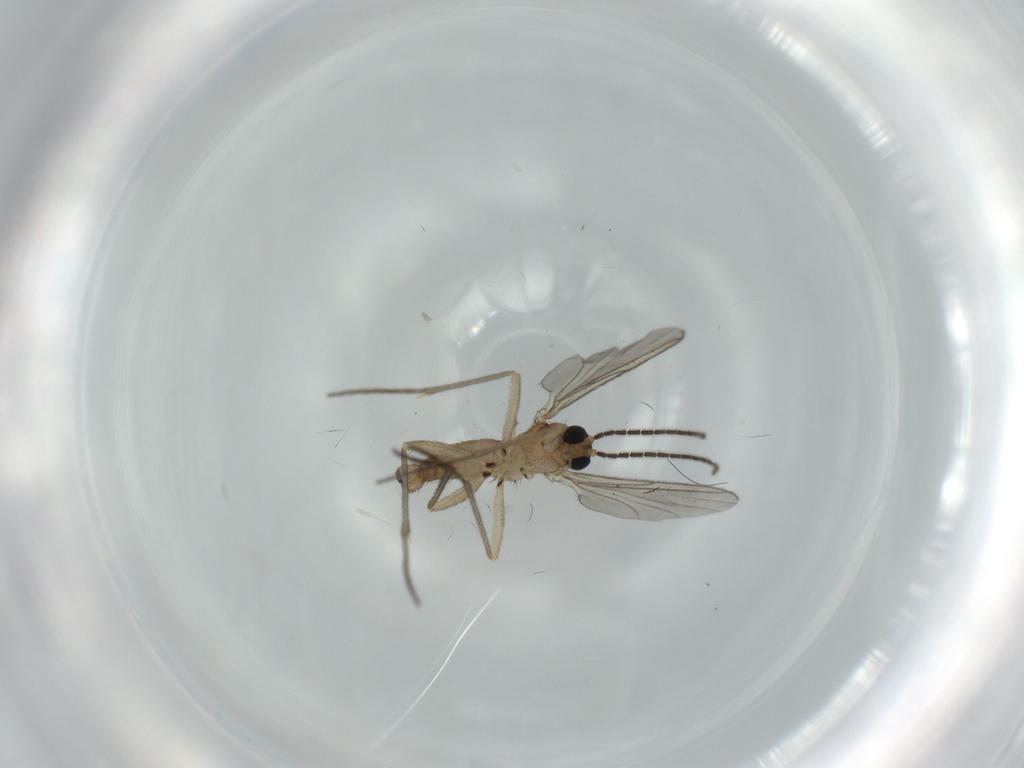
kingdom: Animalia
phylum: Arthropoda
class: Insecta
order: Diptera
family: Sciaridae
